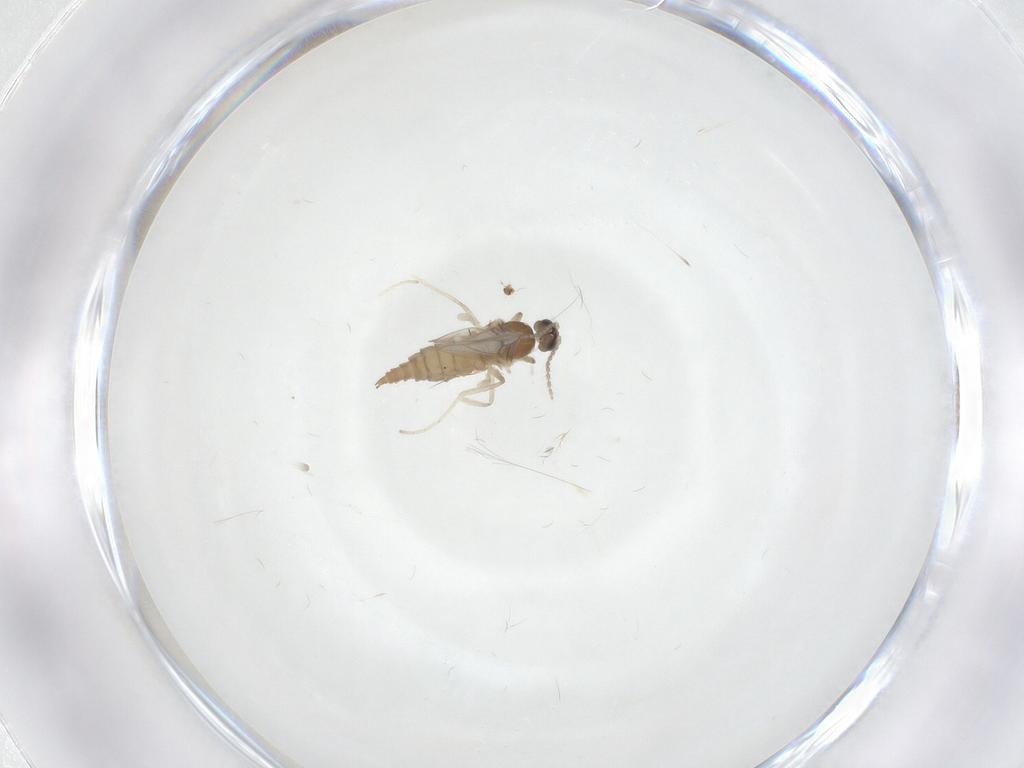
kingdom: Animalia
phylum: Arthropoda
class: Insecta
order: Diptera
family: Cecidomyiidae
